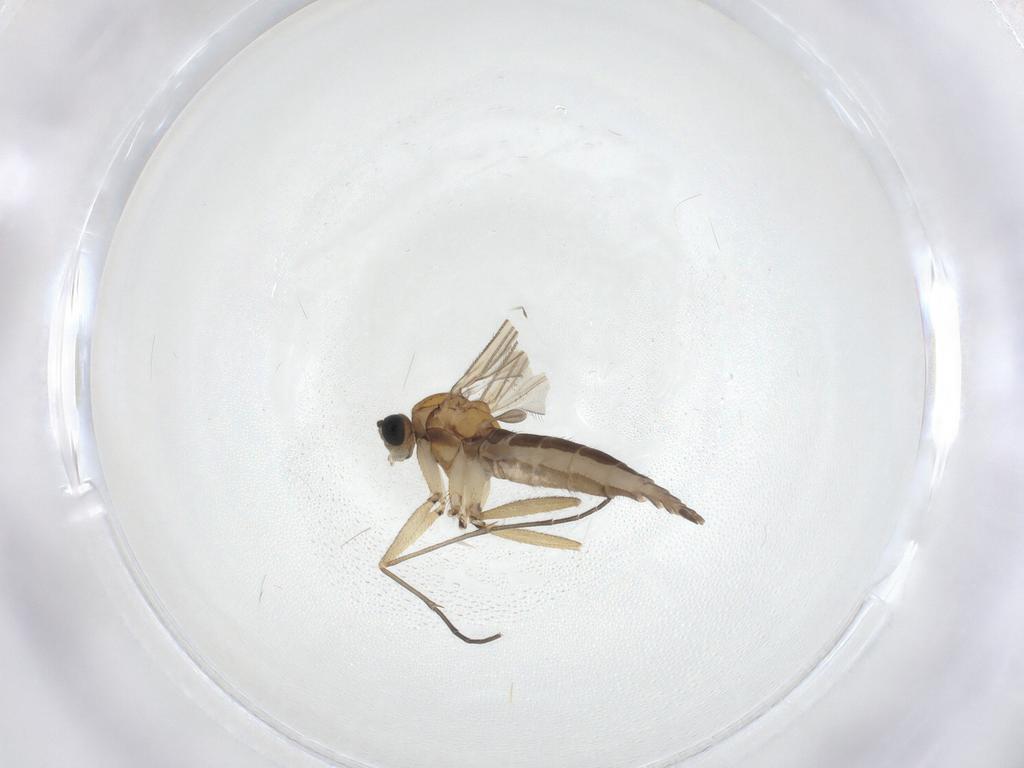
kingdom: Animalia
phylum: Arthropoda
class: Insecta
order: Diptera
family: Sciaridae
